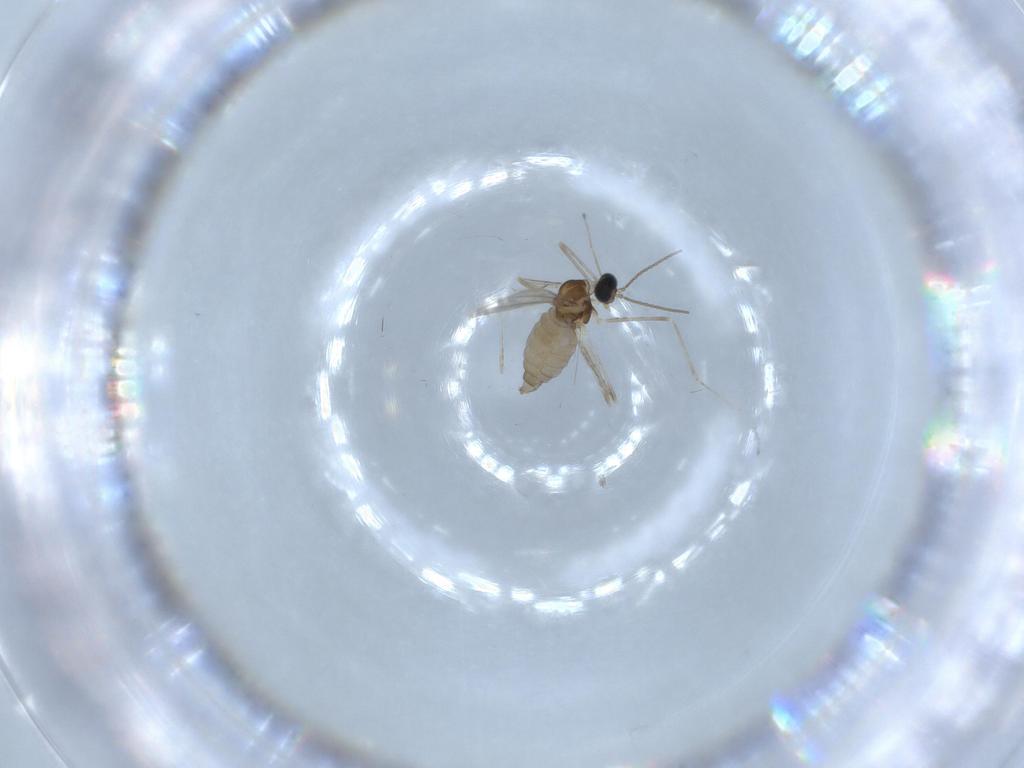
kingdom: Animalia
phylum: Arthropoda
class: Insecta
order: Diptera
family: Cecidomyiidae
